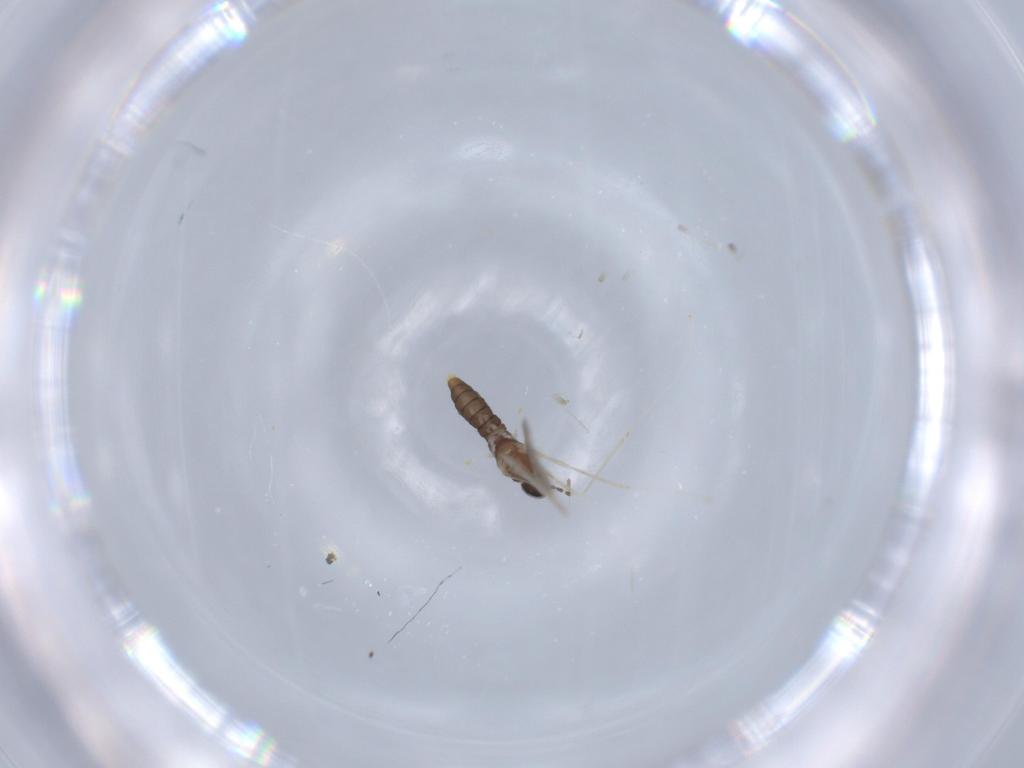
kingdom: Animalia
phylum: Arthropoda
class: Insecta
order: Diptera
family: Cecidomyiidae
